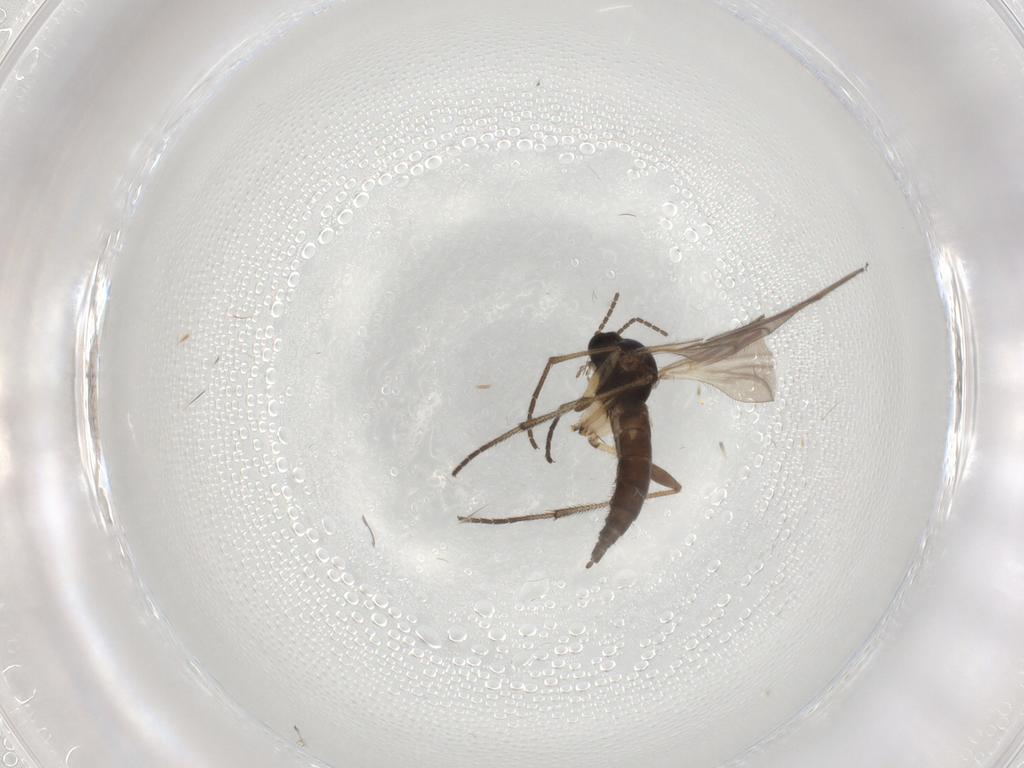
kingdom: Animalia
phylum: Arthropoda
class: Insecta
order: Diptera
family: Sciaridae
